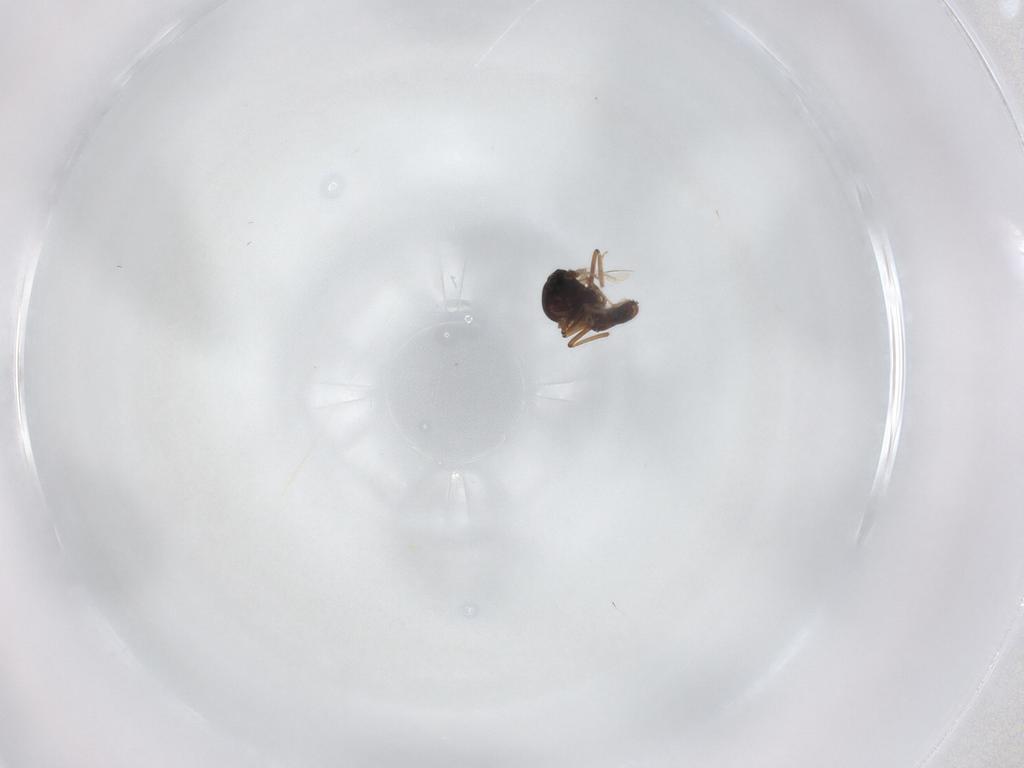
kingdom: Animalia
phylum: Arthropoda
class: Insecta
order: Diptera
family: Ceratopogonidae
